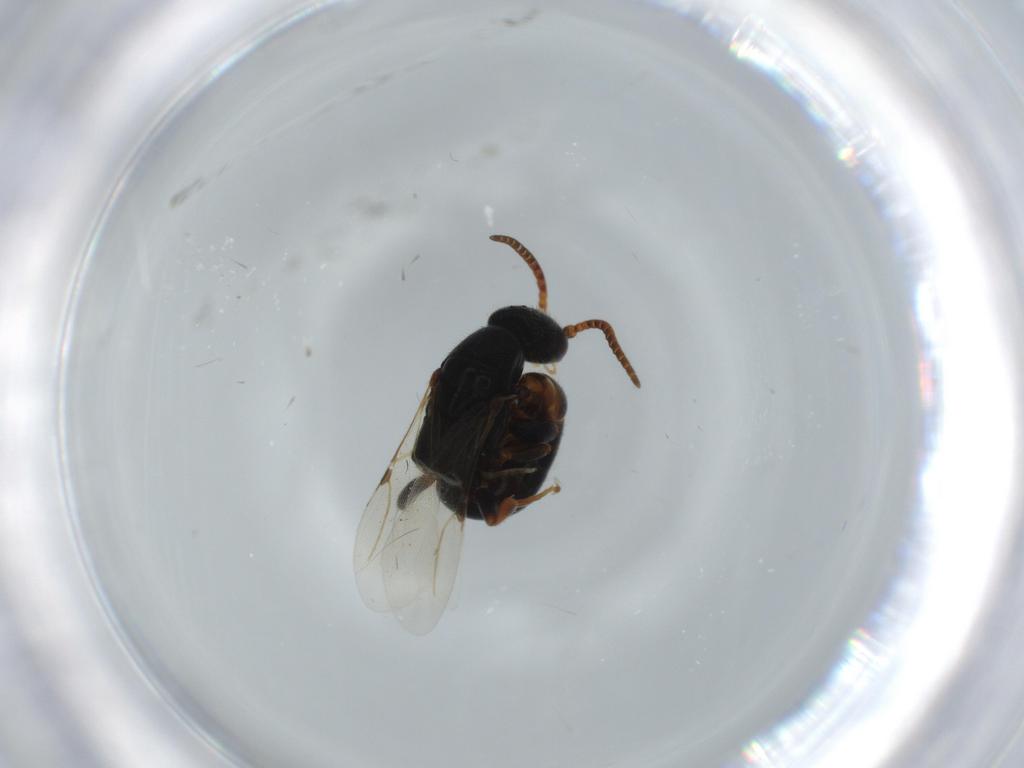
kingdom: Animalia
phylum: Arthropoda
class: Insecta
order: Hymenoptera
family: Bethylidae
